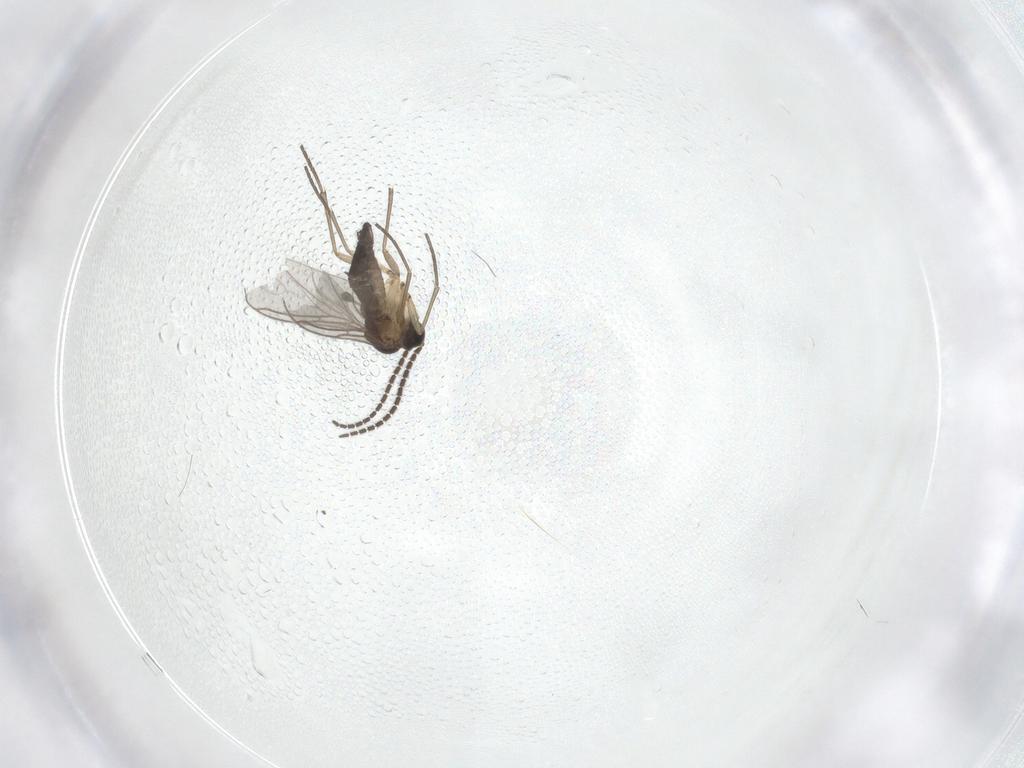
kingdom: Animalia
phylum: Arthropoda
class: Insecta
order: Diptera
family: Sciaridae
